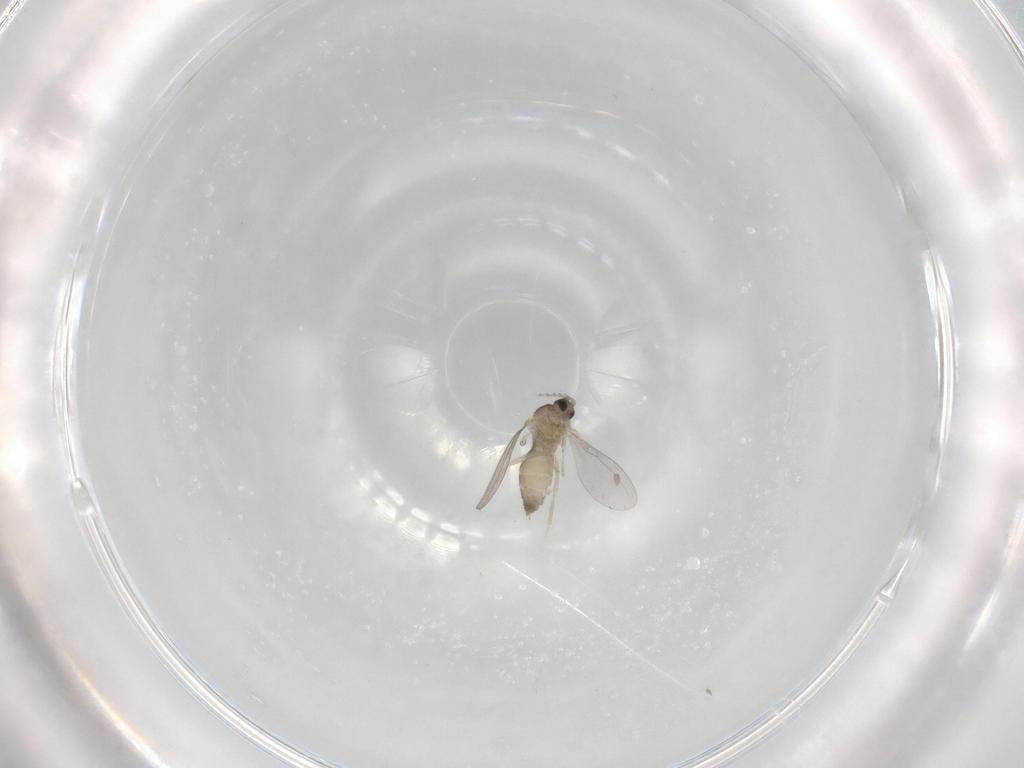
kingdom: Animalia
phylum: Arthropoda
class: Insecta
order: Diptera
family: Cecidomyiidae
